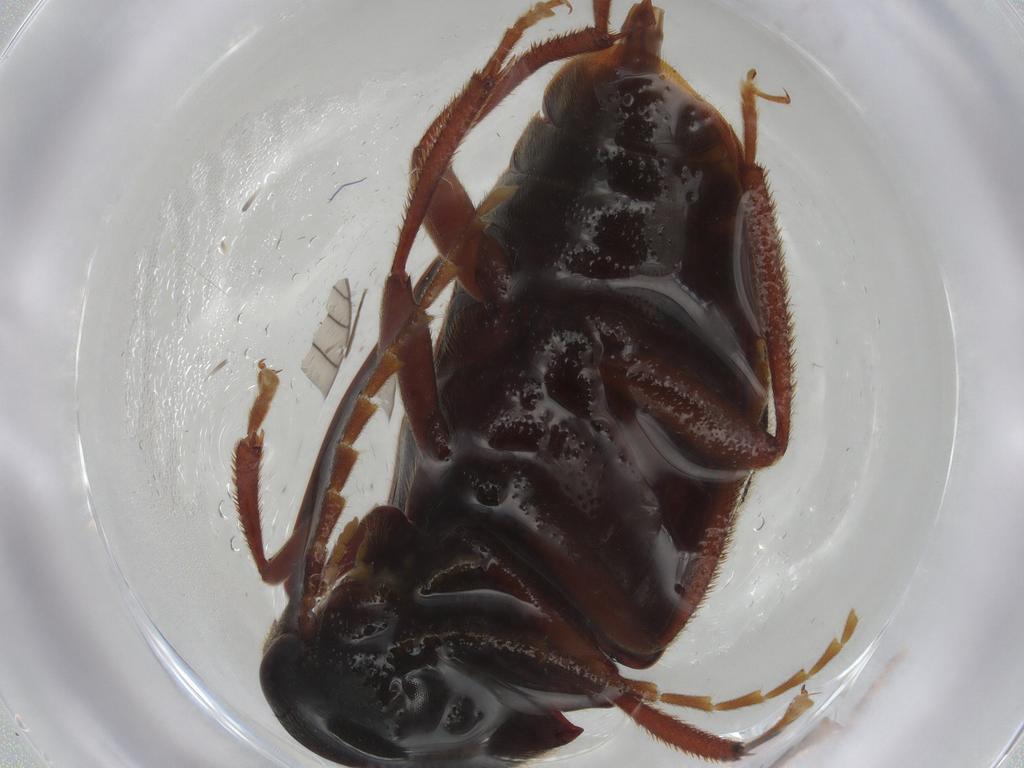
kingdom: Animalia
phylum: Arthropoda
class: Insecta
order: Coleoptera
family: Ptilodactylidae
